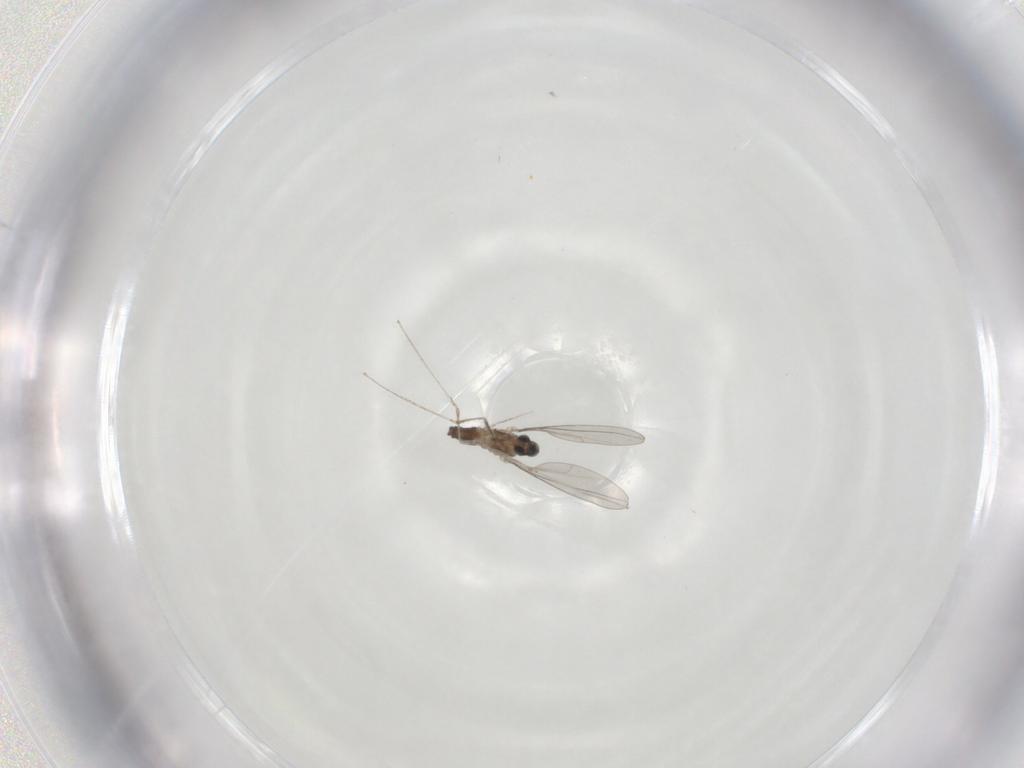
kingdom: Animalia
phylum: Arthropoda
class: Insecta
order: Diptera
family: Cecidomyiidae
